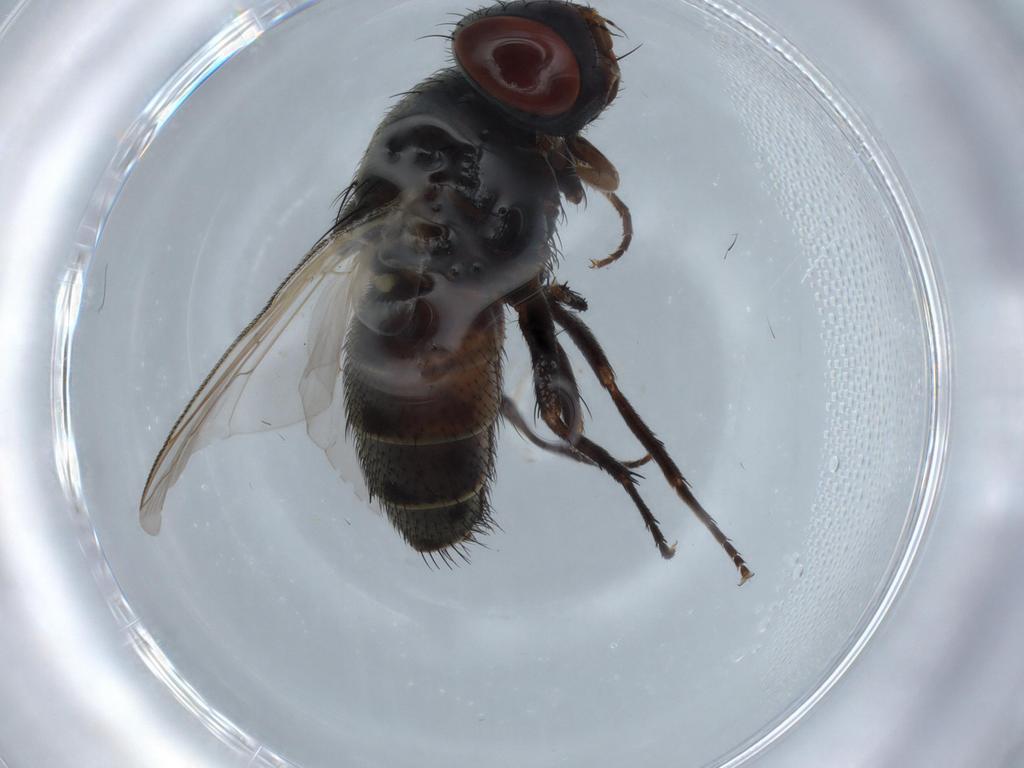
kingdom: Animalia
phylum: Arthropoda
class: Insecta
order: Diptera
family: Sarcophagidae
